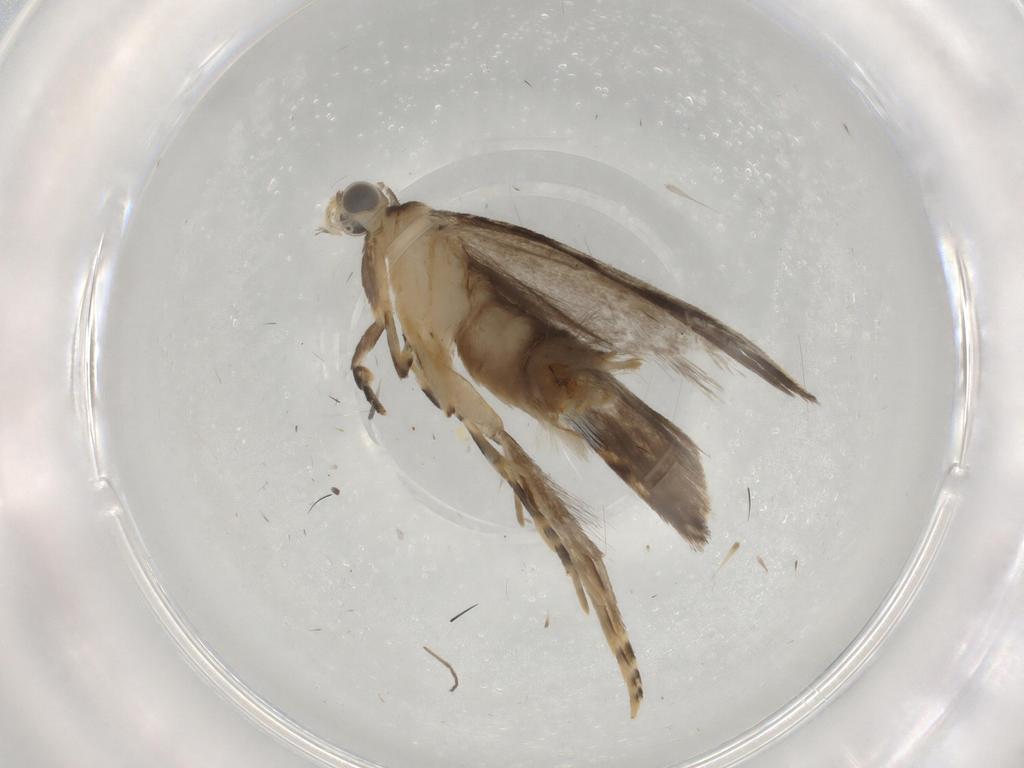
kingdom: Animalia
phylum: Arthropoda
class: Insecta
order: Lepidoptera
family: Tineidae
